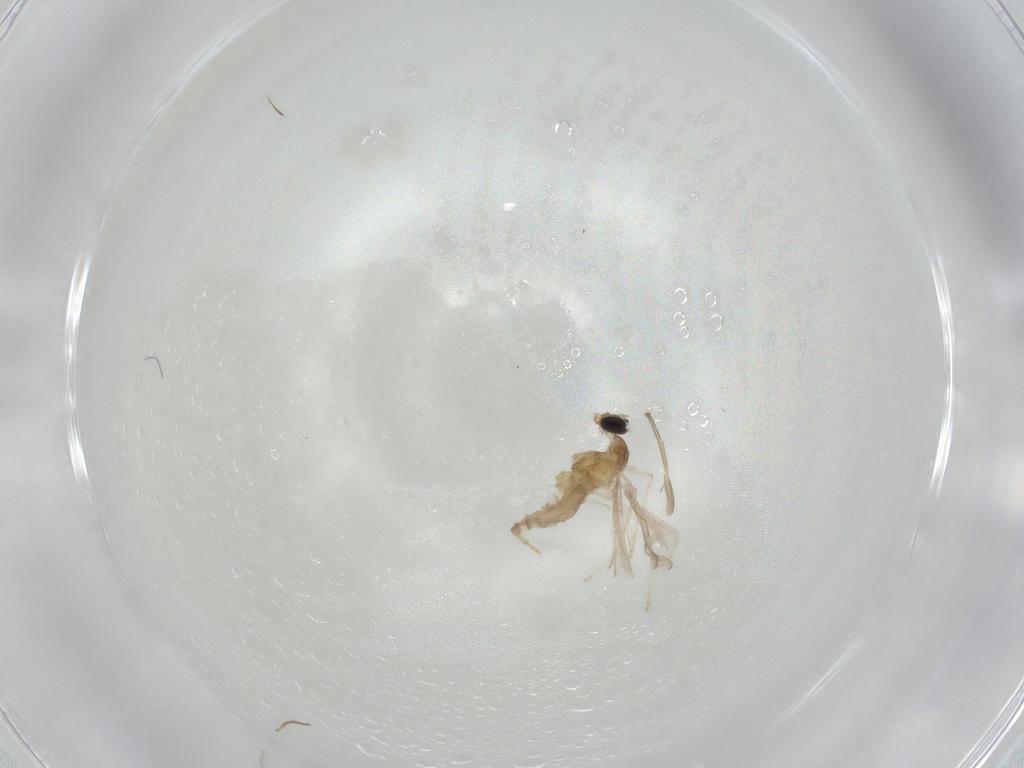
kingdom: Animalia
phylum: Arthropoda
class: Insecta
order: Diptera
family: Cecidomyiidae
